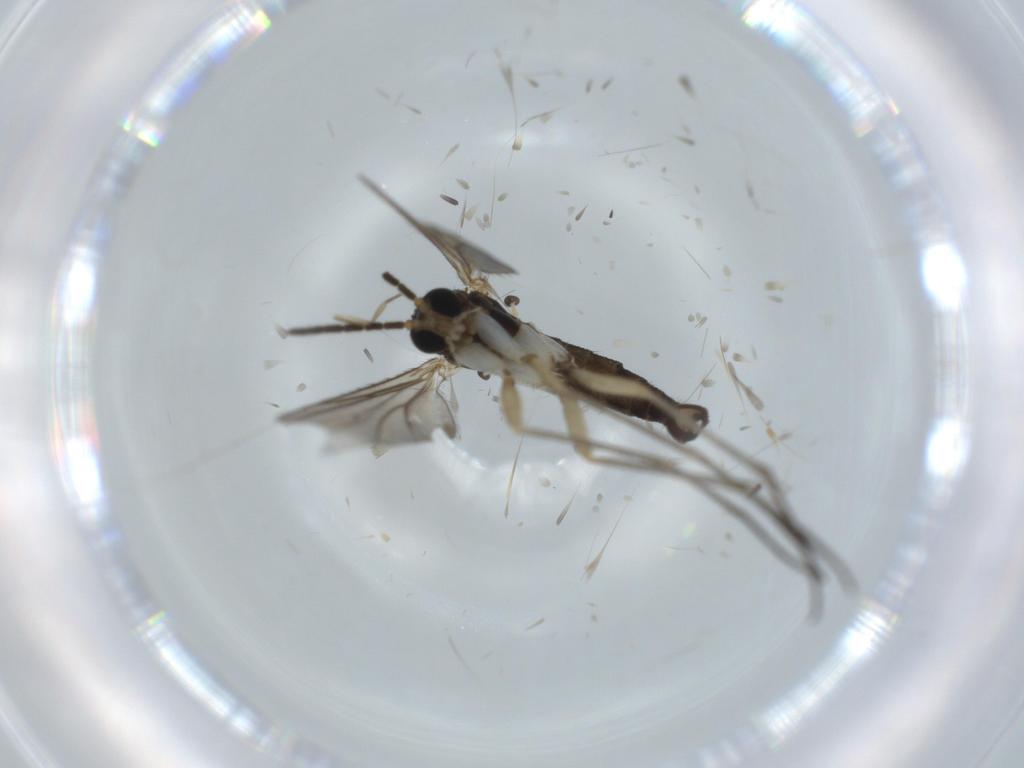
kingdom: Animalia
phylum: Arthropoda
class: Insecta
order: Diptera
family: Sciaridae
